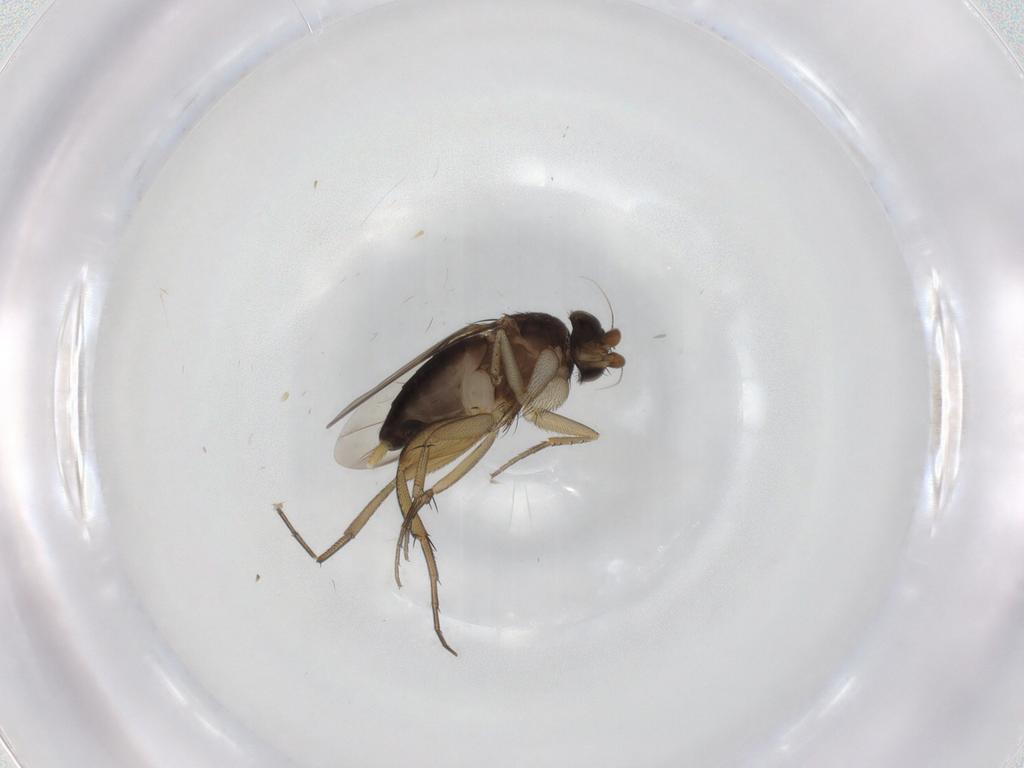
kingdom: Animalia
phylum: Arthropoda
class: Insecta
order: Diptera
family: Phoridae
